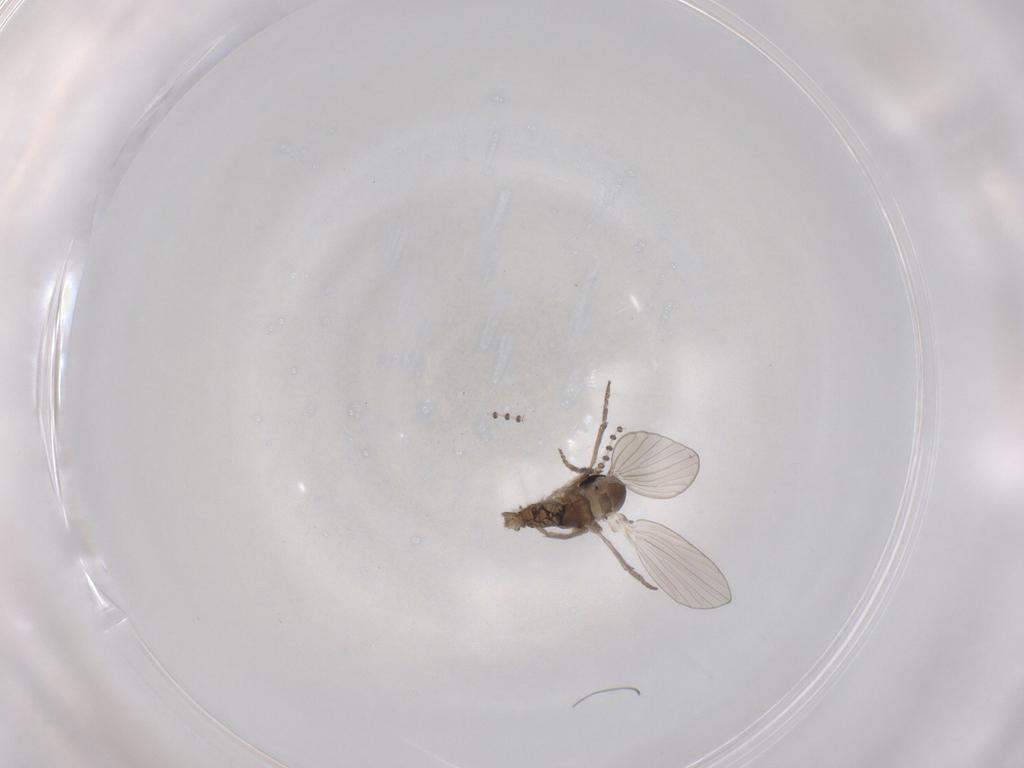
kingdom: Animalia
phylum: Arthropoda
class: Insecta
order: Diptera
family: Psychodidae
